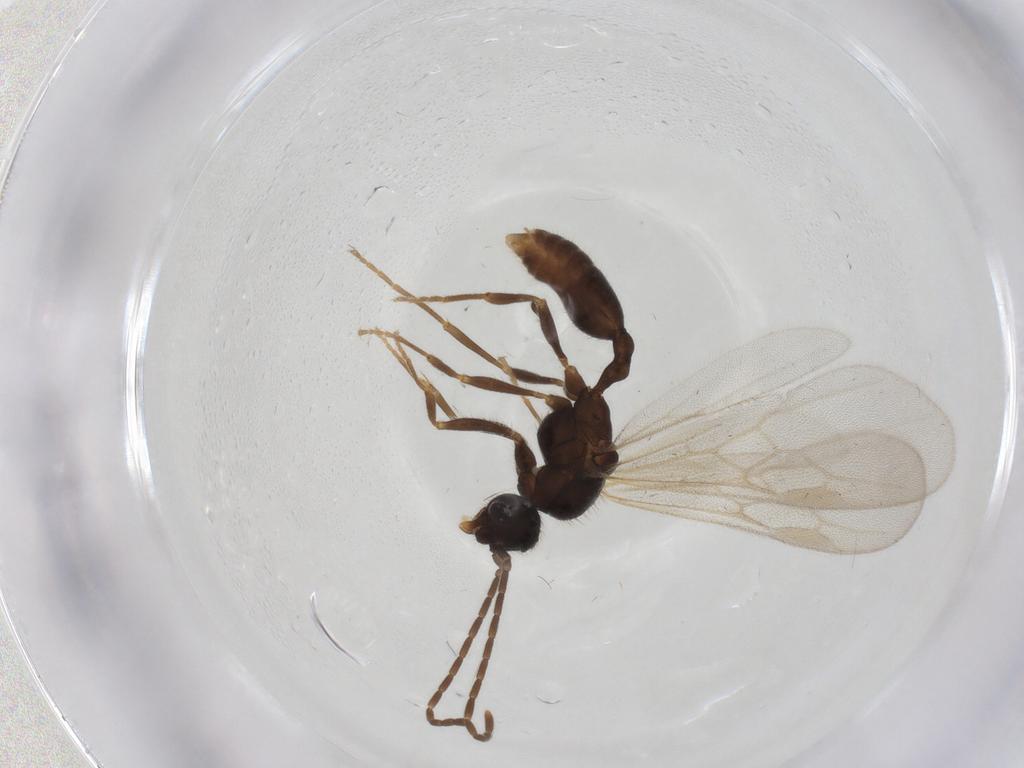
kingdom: Animalia
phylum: Arthropoda
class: Insecta
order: Hymenoptera
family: Formicidae
